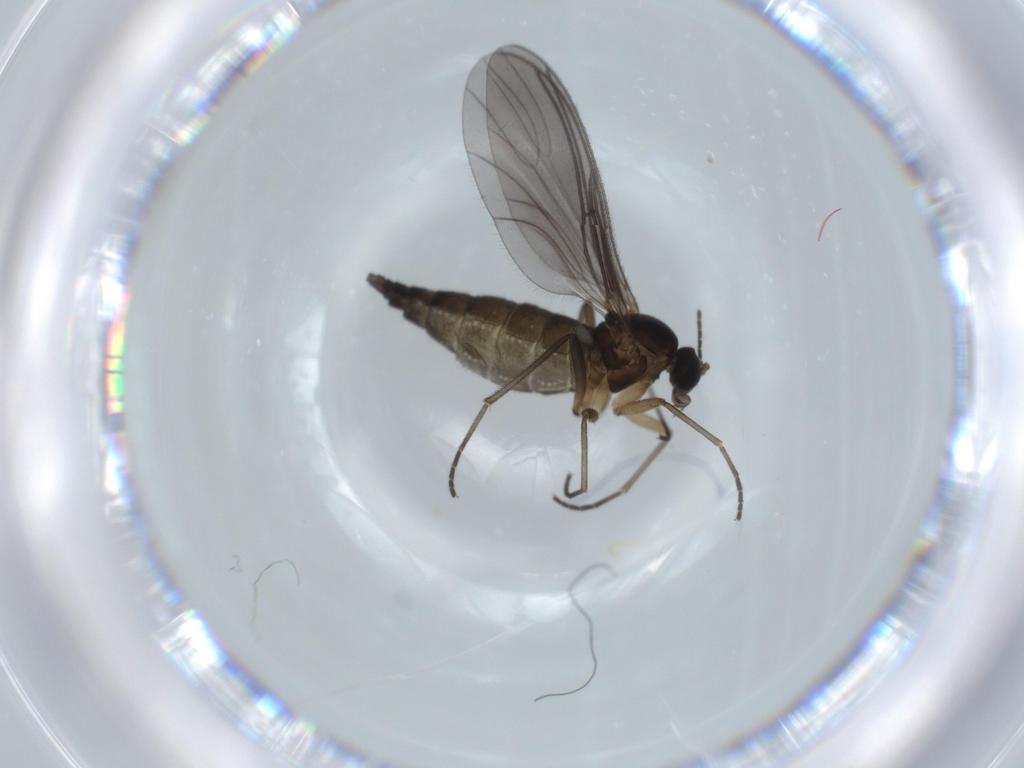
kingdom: Animalia
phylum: Arthropoda
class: Insecta
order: Diptera
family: Sciaridae
